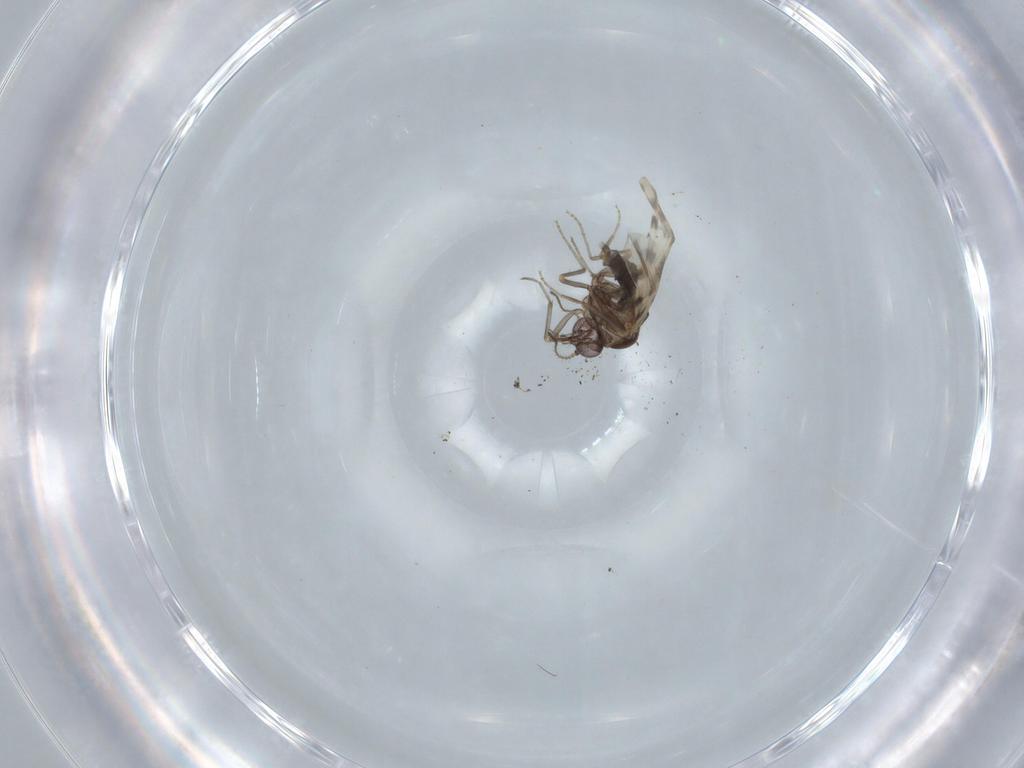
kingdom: Animalia
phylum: Arthropoda
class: Insecta
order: Diptera
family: Ceratopogonidae
